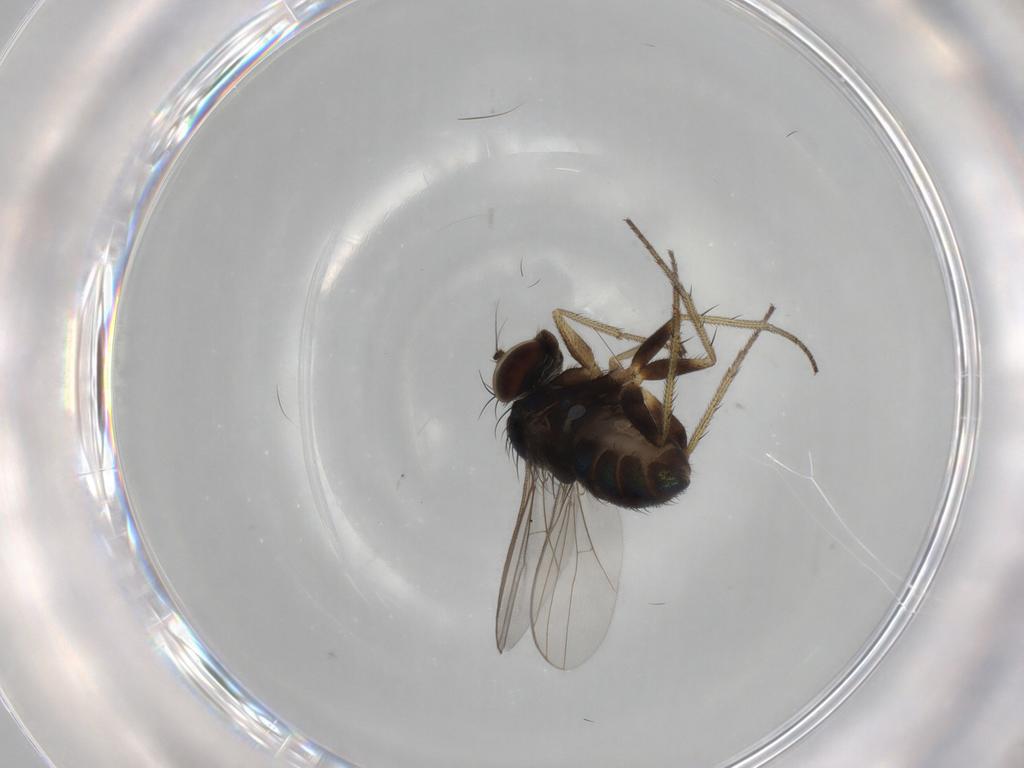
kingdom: Animalia
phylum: Arthropoda
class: Insecta
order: Diptera
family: Dolichopodidae
